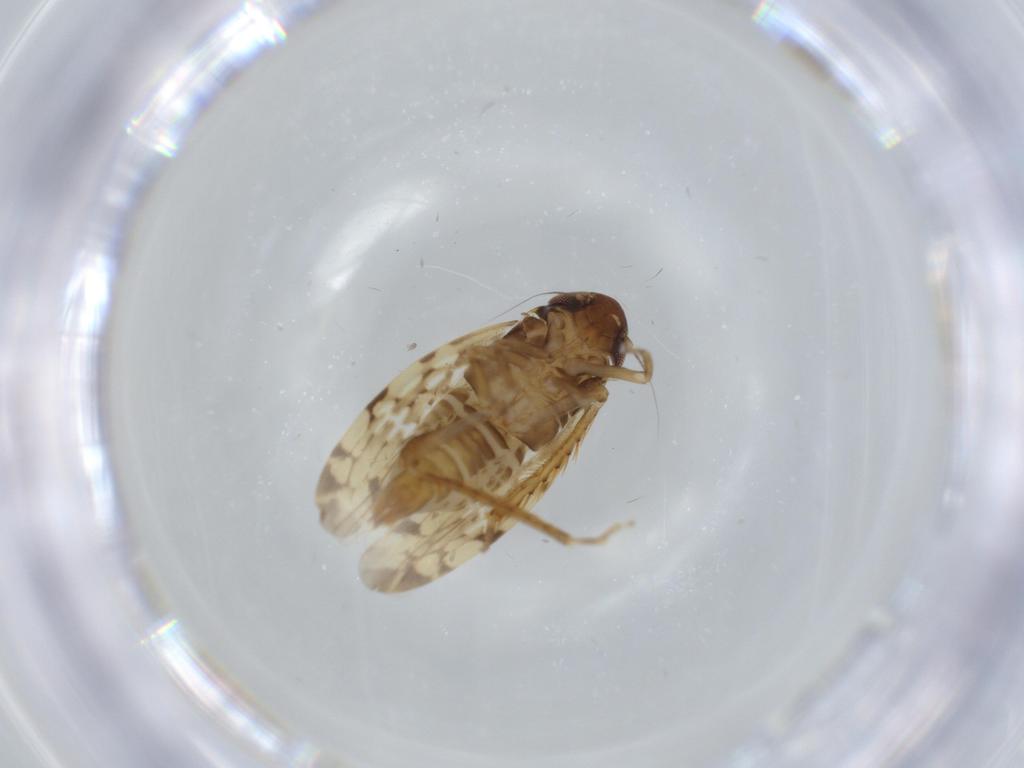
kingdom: Animalia
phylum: Arthropoda
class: Insecta
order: Hemiptera
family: Cicadellidae
